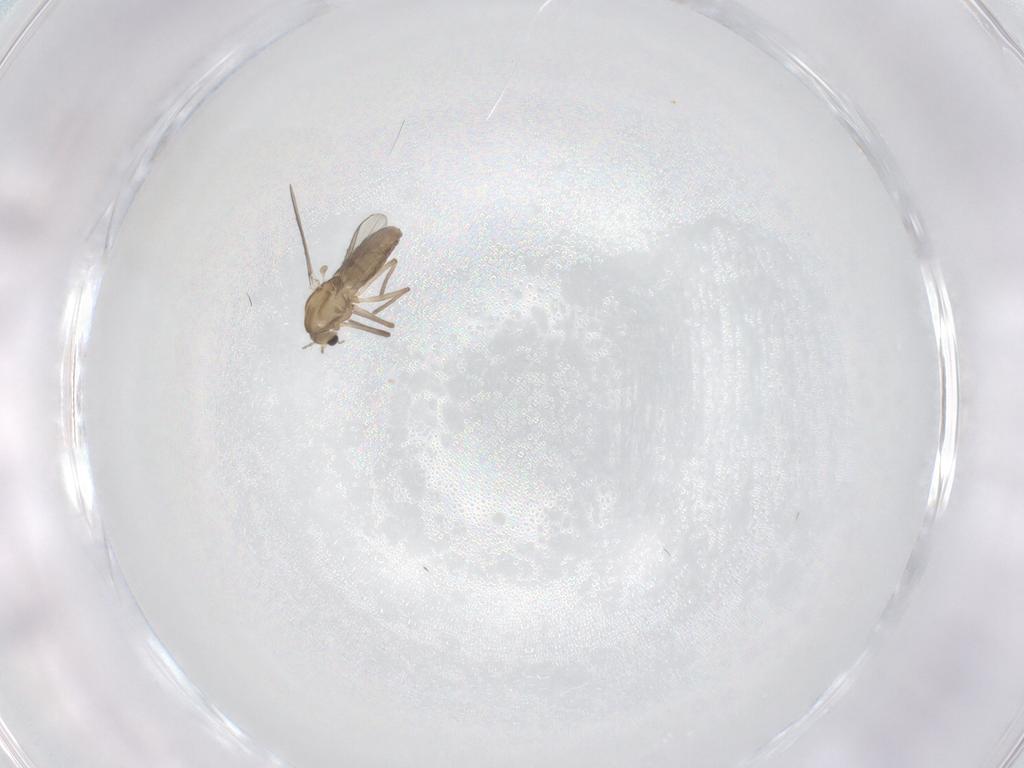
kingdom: Animalia
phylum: Arthropoda
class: Insecta
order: Diptera
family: Chironomidae
